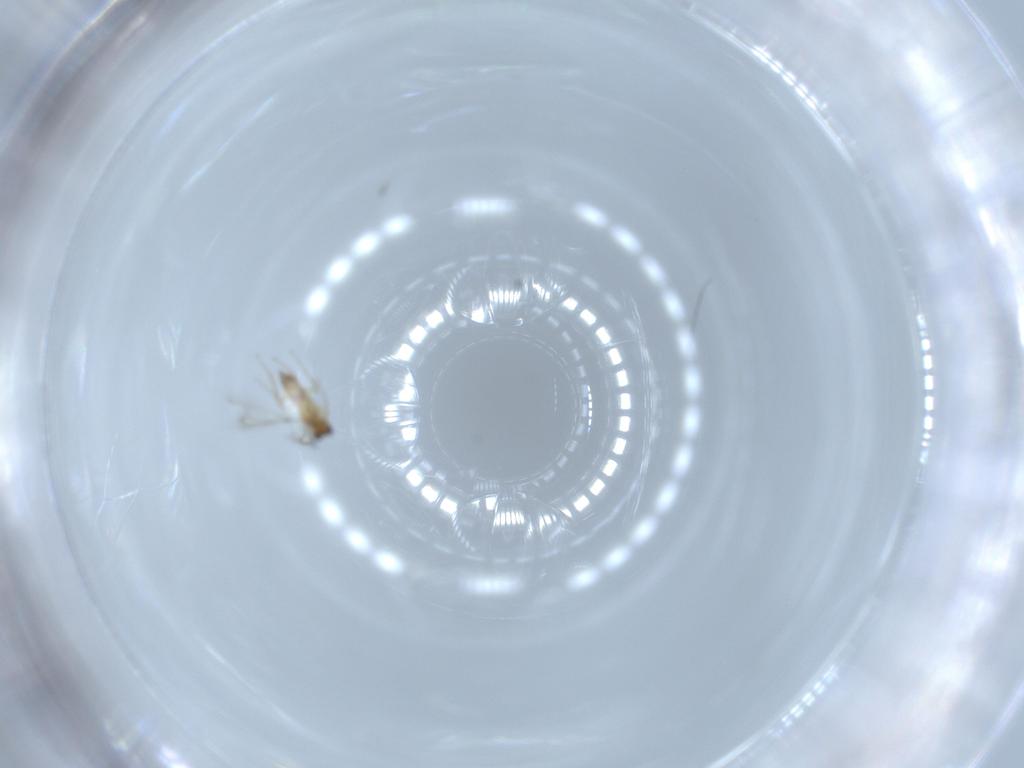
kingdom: Animalia
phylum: Arthropoda
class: Insecta
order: Hymenoptera
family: Mymaridae
